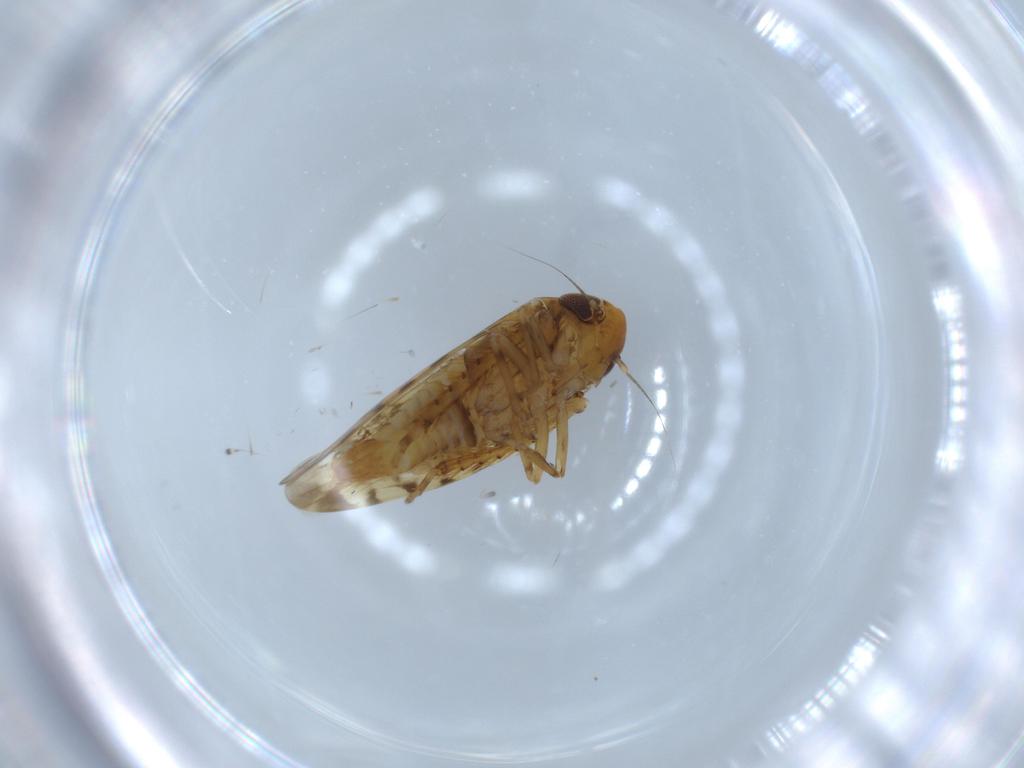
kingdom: Animalia
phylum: Arthropoda
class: Insecta
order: Hemiptera
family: Cicadellidae
